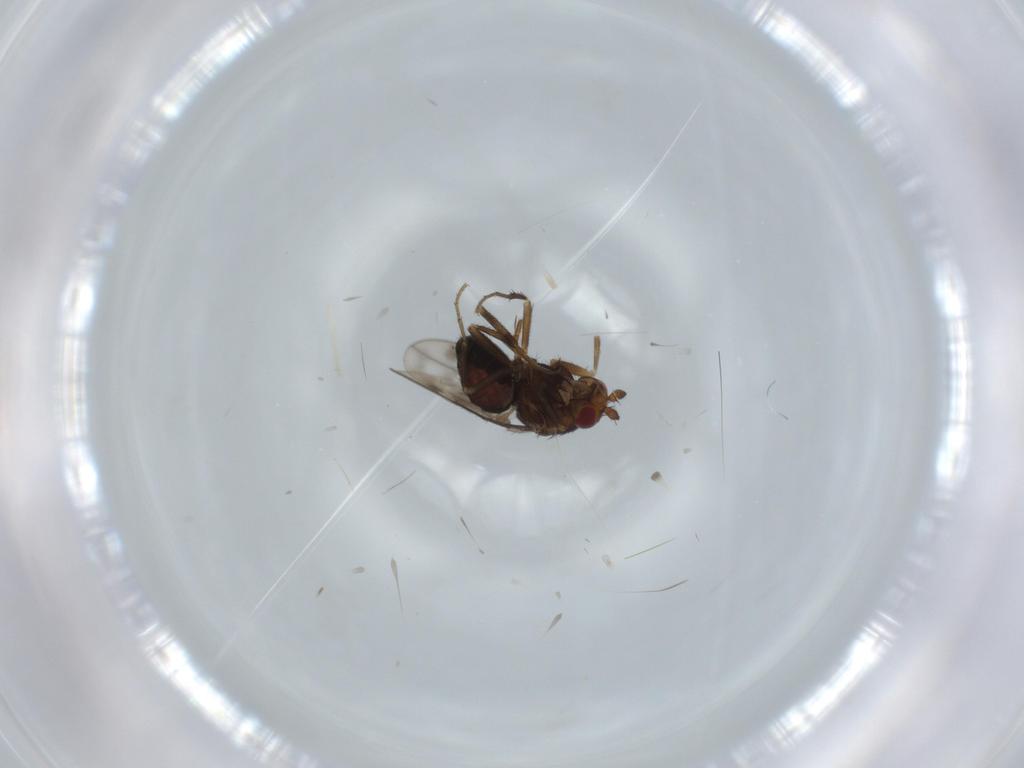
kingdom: Animalia
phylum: Arthropoda
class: Insecta
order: Diptera
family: Sphaeroceridae
